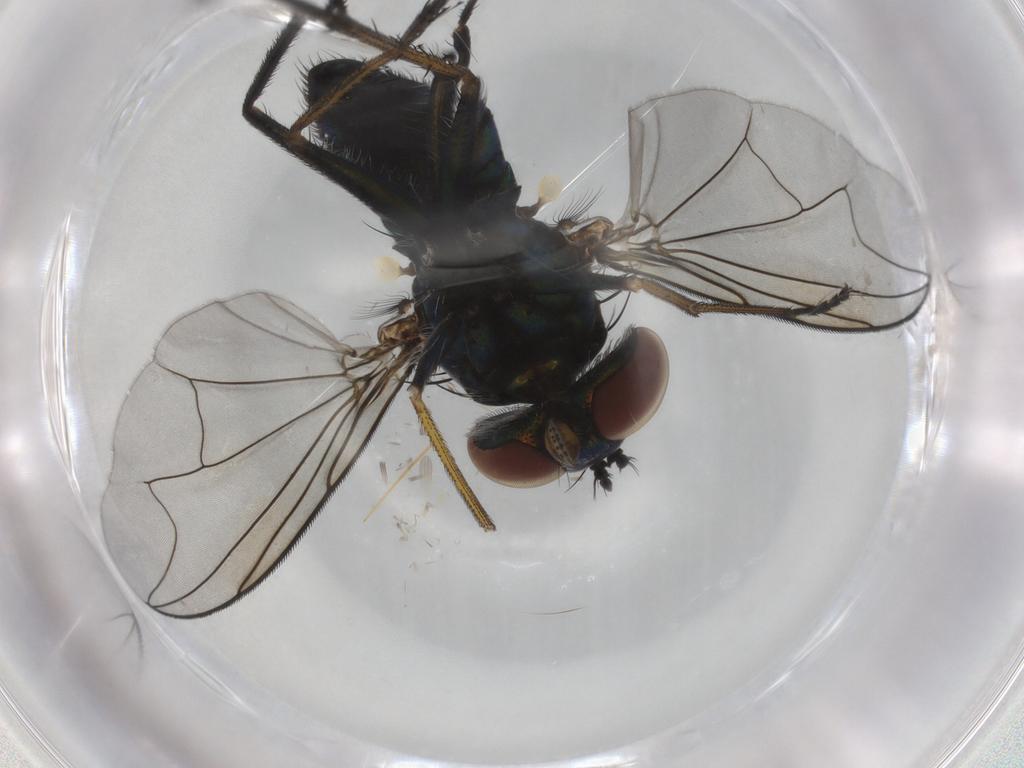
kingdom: Animalia
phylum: Arthropoda
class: Insecta
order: Diptera
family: Dolichopodidae
